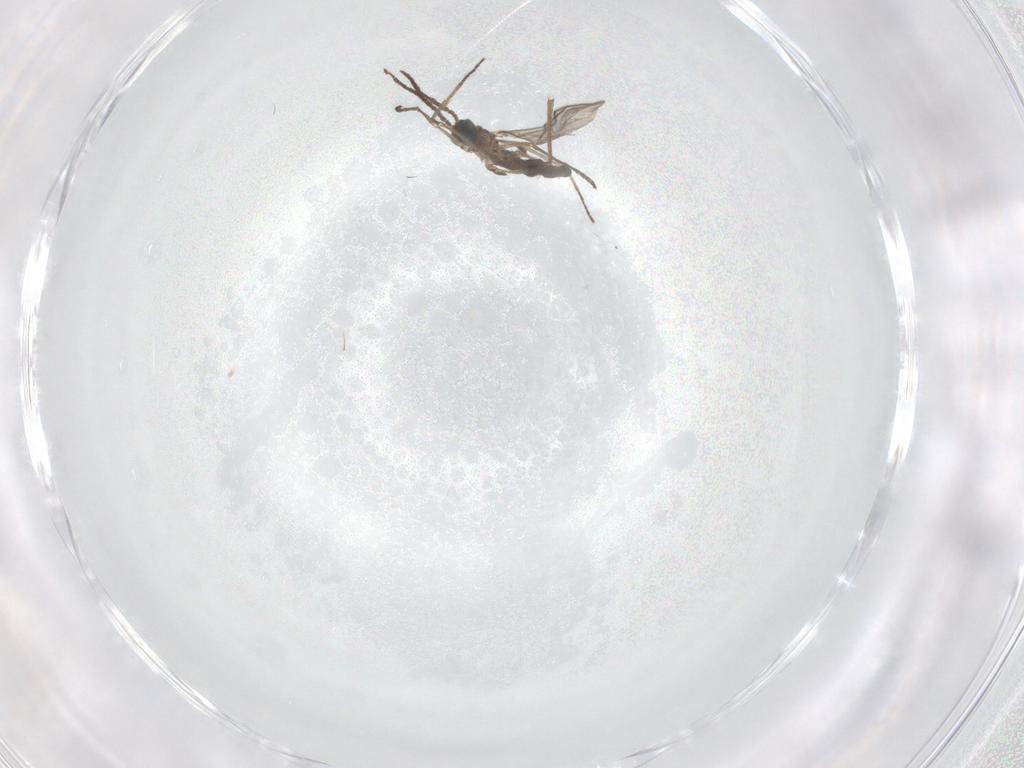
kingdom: Animalia
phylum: Arthropoda
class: Insecta
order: Diptera
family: Sciaridae
